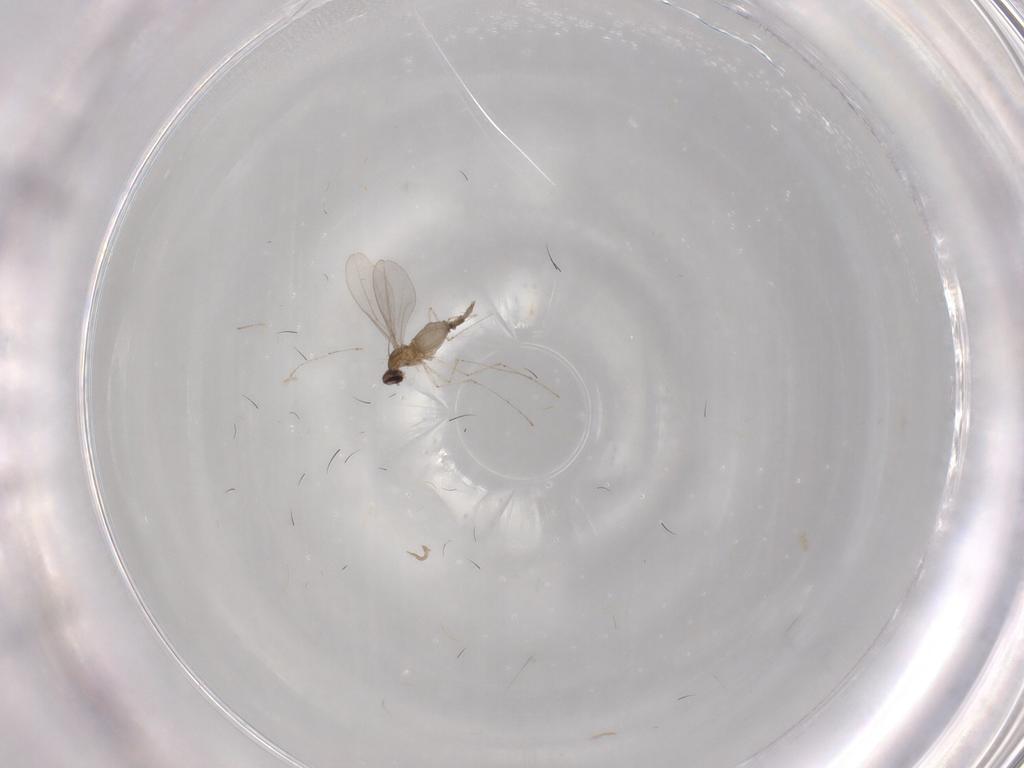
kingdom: Animalia
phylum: Arthropoda
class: Insecta
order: Diptera
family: Cecidomyiidae
